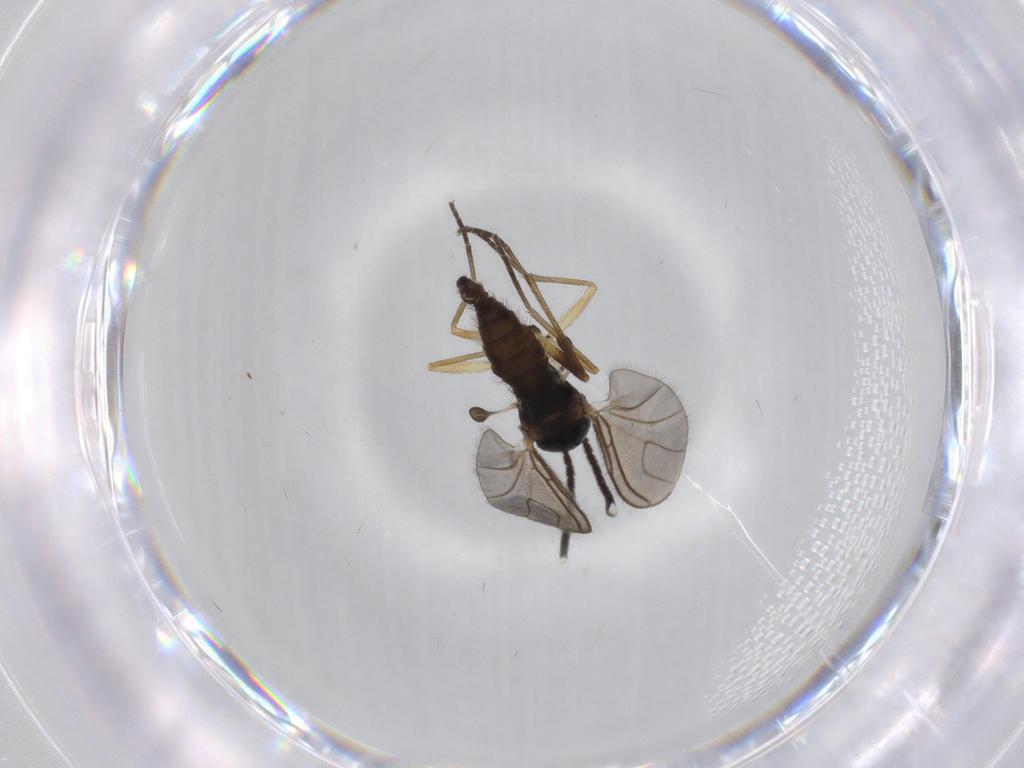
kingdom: Animalia
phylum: Arthropoda
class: Insecta
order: Diptera
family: Sciaridae
